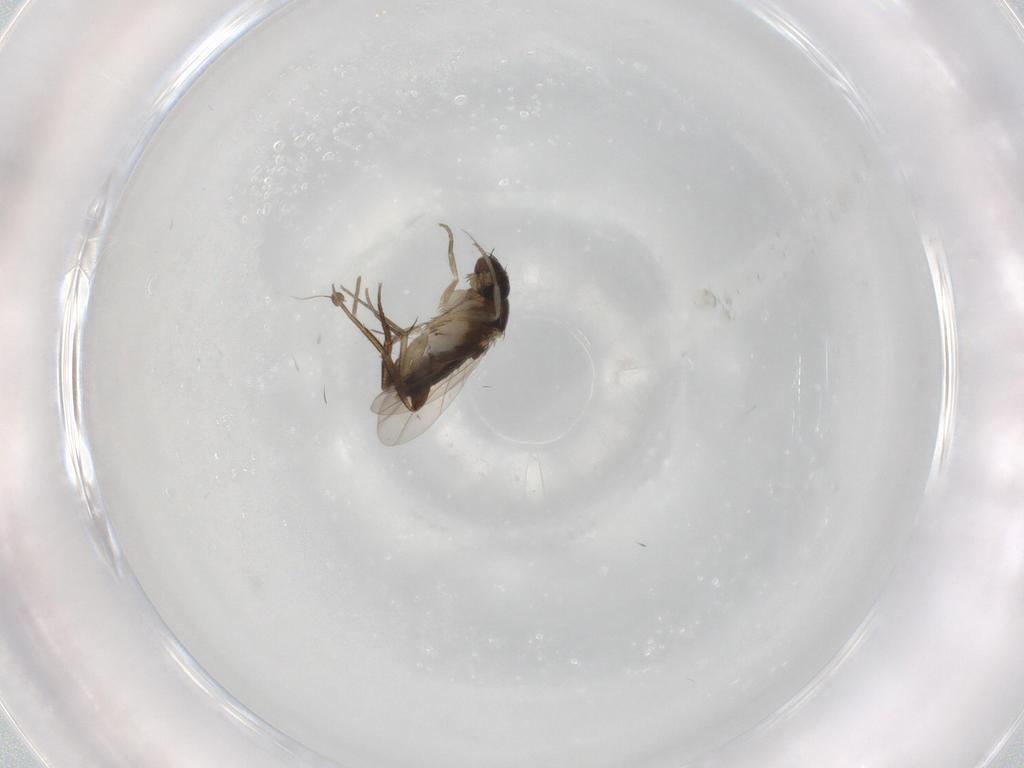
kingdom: Animalia
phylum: Arthropoda
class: Insecta
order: Diptera
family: Phoridae
